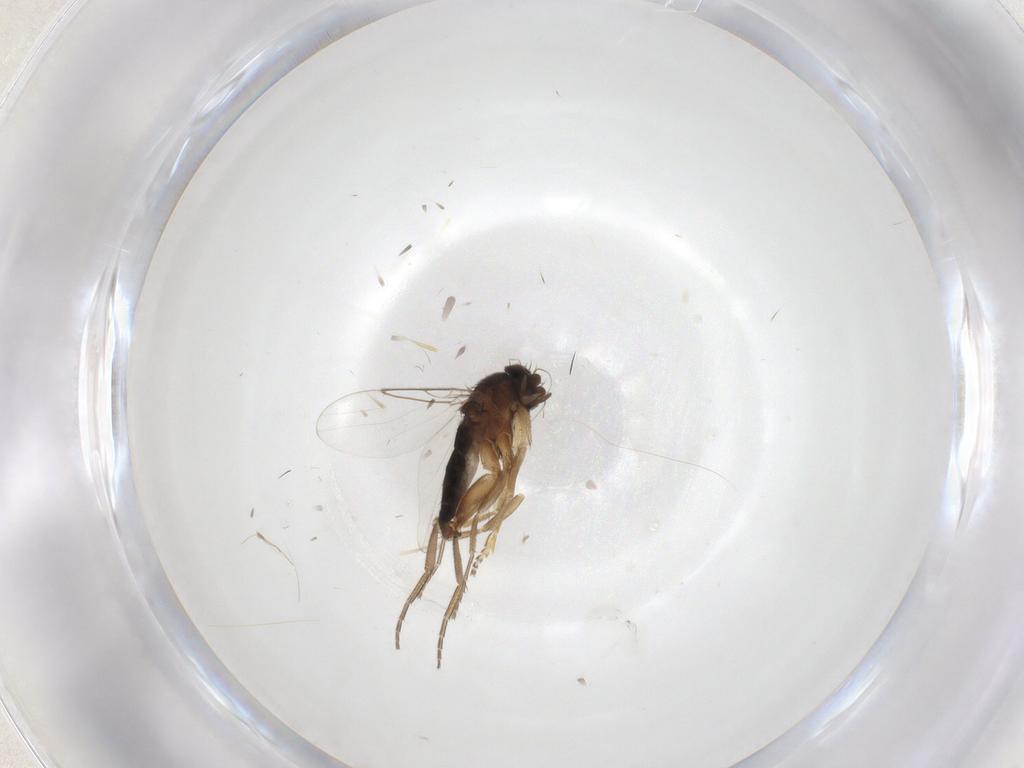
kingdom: Animalia
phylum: Arthropoda
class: Insecta
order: Diptera
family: Phoridae
